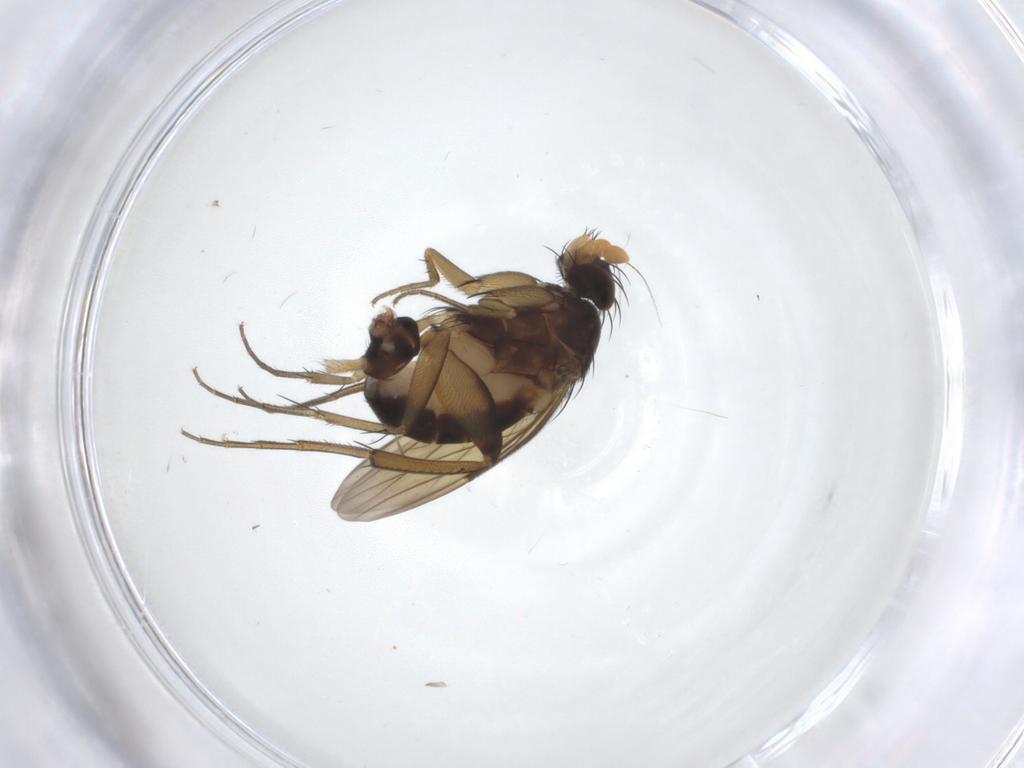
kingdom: Animalia
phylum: Arthropoda
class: Insecta
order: Diptera
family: Phoridae
